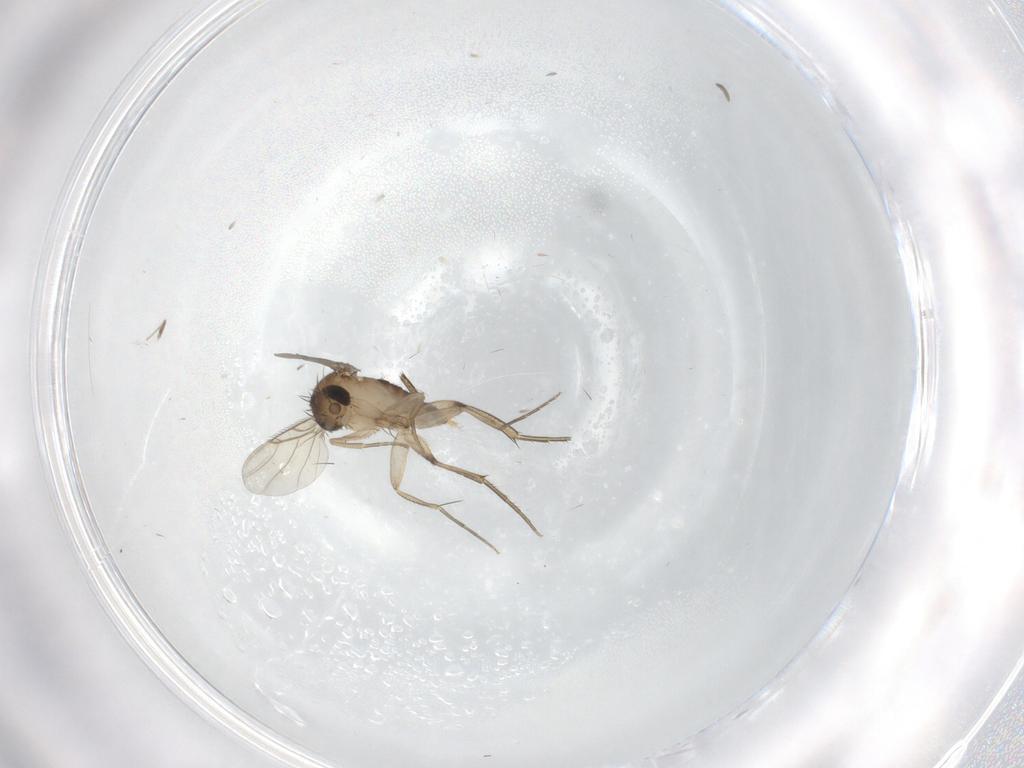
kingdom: Animalia
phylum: Arthropoda
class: Insecta
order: Diptera
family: Phoridae
